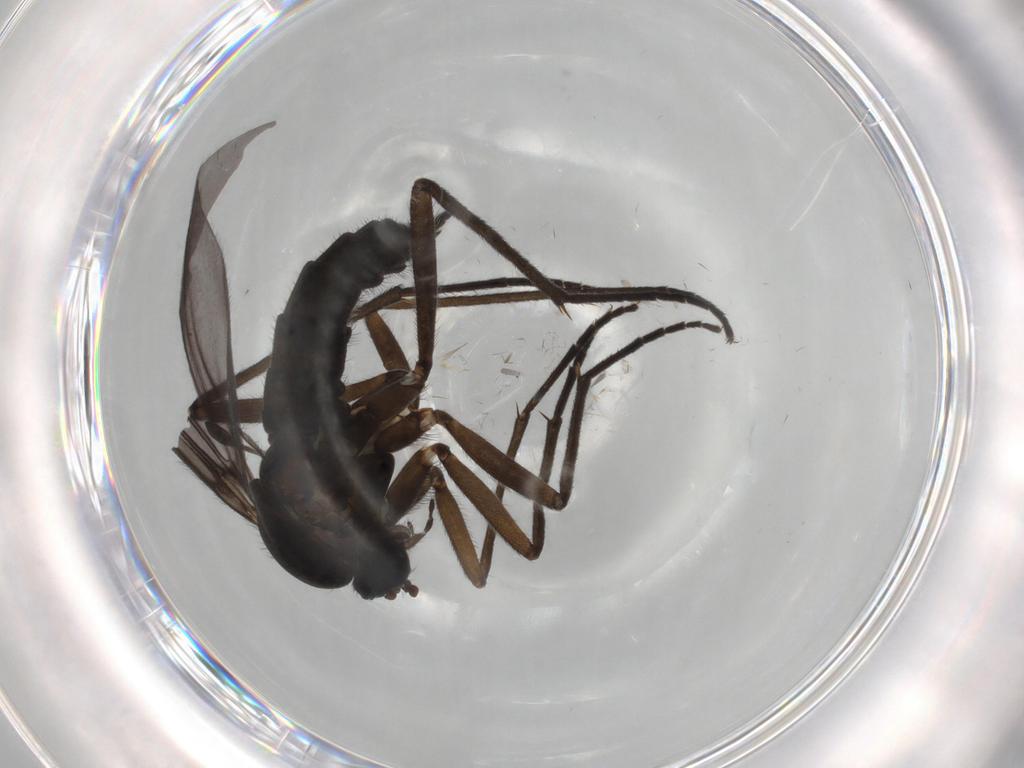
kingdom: Animalia
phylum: Arthropoda
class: Insecta
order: Diptera
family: Sciaridae
